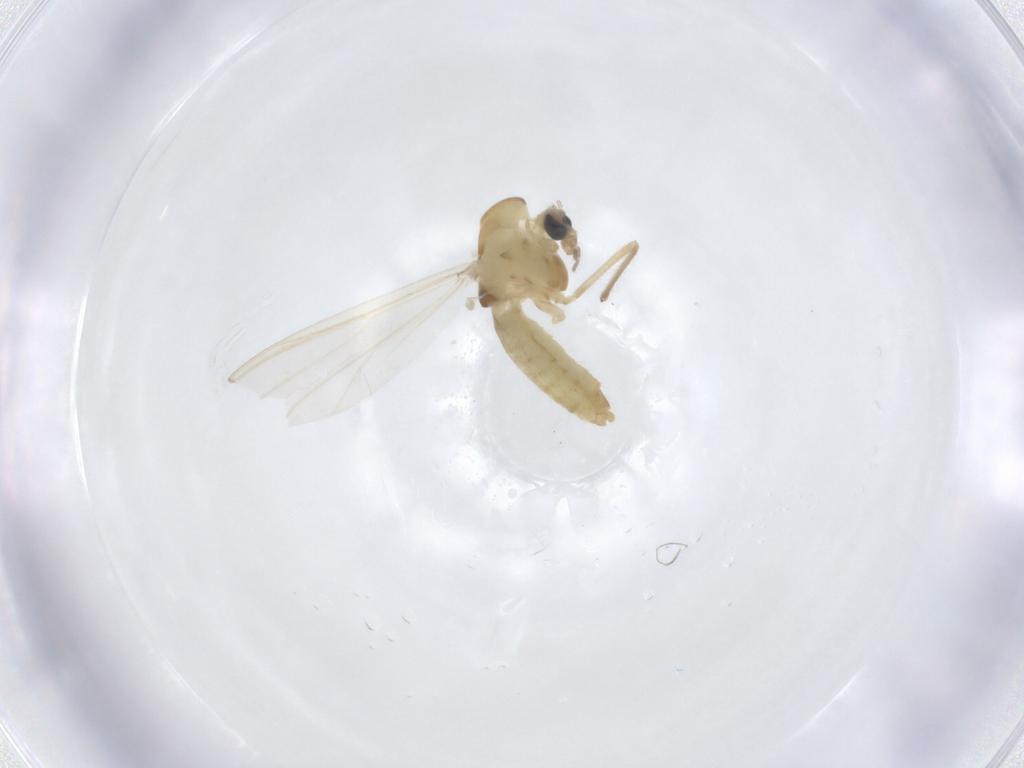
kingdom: Animalia
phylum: Arthropoda
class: Insecta
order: Diptera
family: Chironomidae
